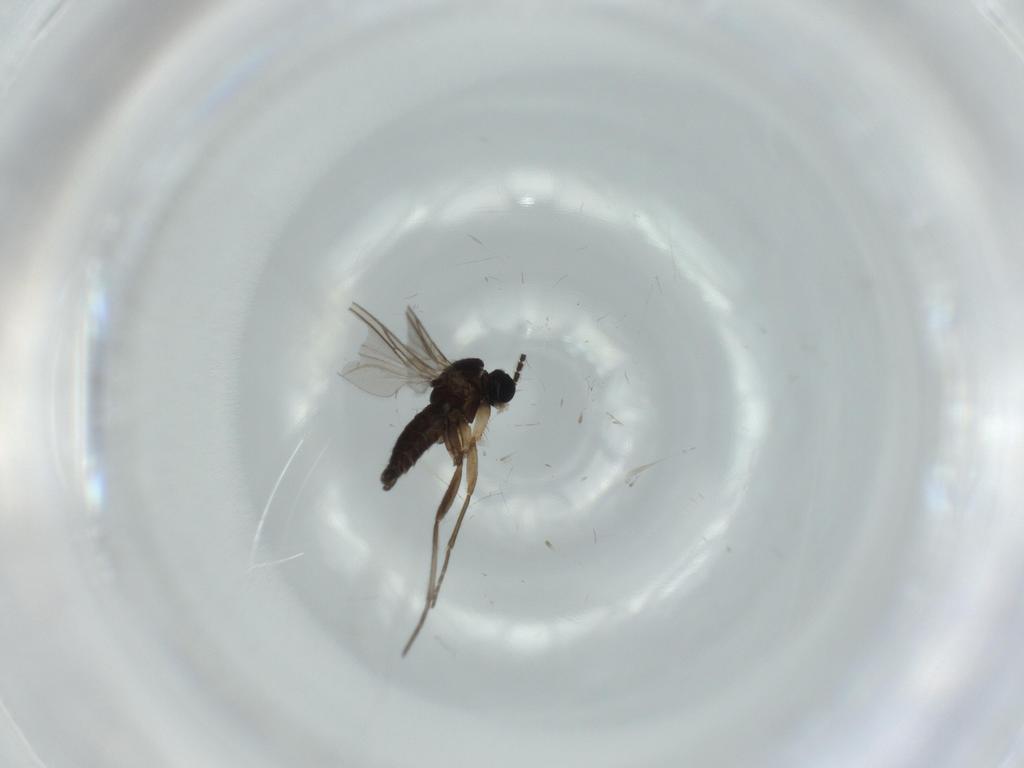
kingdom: Animalia
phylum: Arthropoda
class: Insecta
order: Diptera
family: Sciaridae
